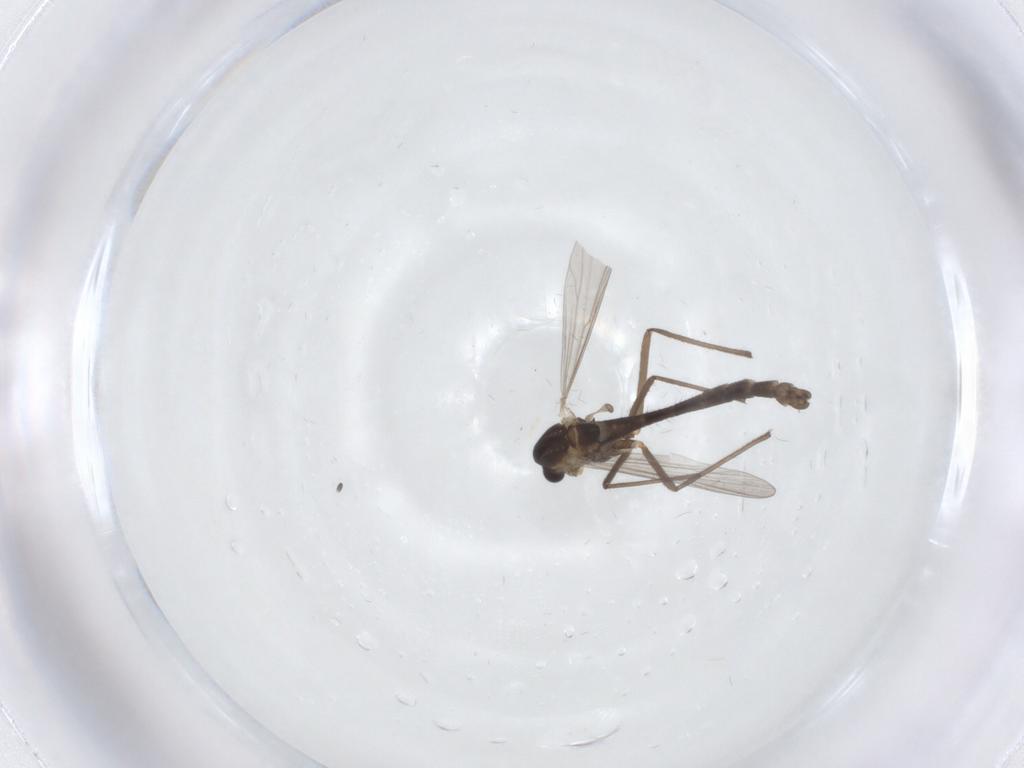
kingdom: Animalia
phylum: Arthropoda
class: Insecta
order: Diptera
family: Chironomidae
